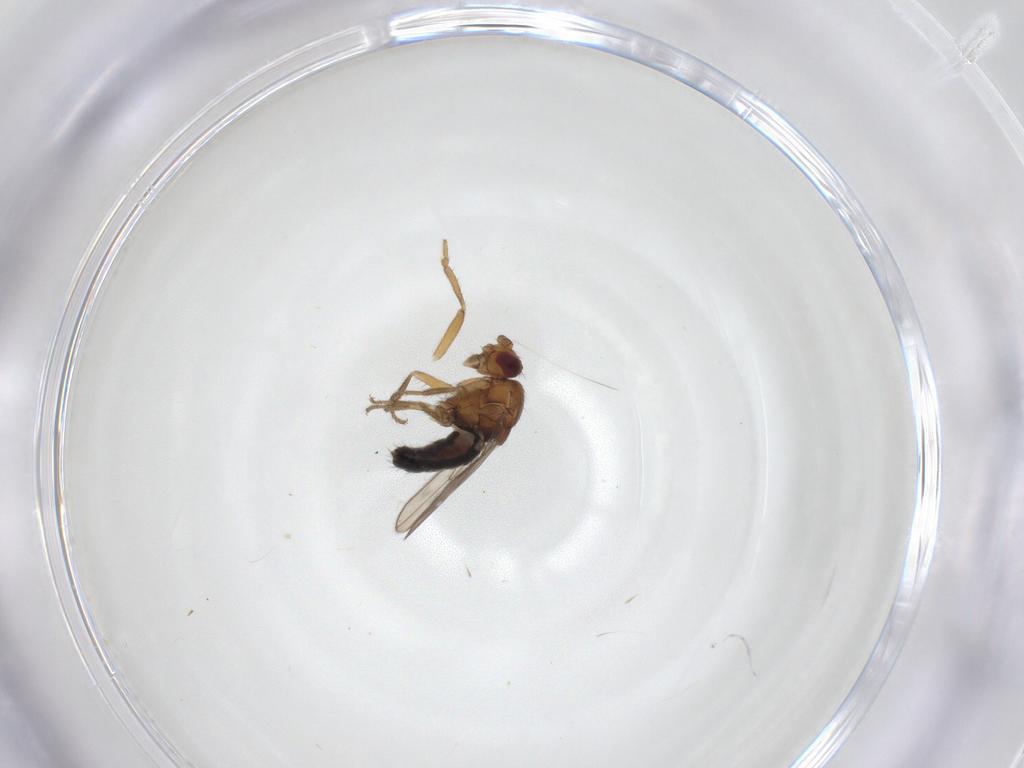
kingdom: Animalia
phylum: Arthropoda
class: Insecta
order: Diptera
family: Sphaeroceridae
